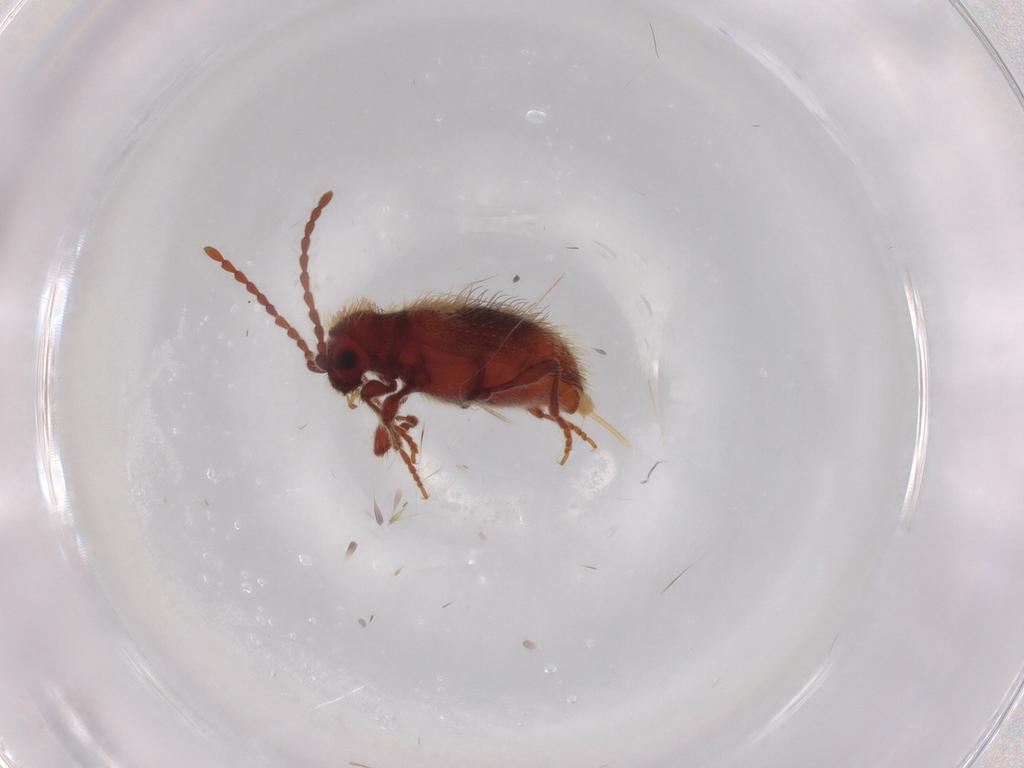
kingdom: Animalia
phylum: Arthropoda
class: Insecta
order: Coleoptera
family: Ptinidae
